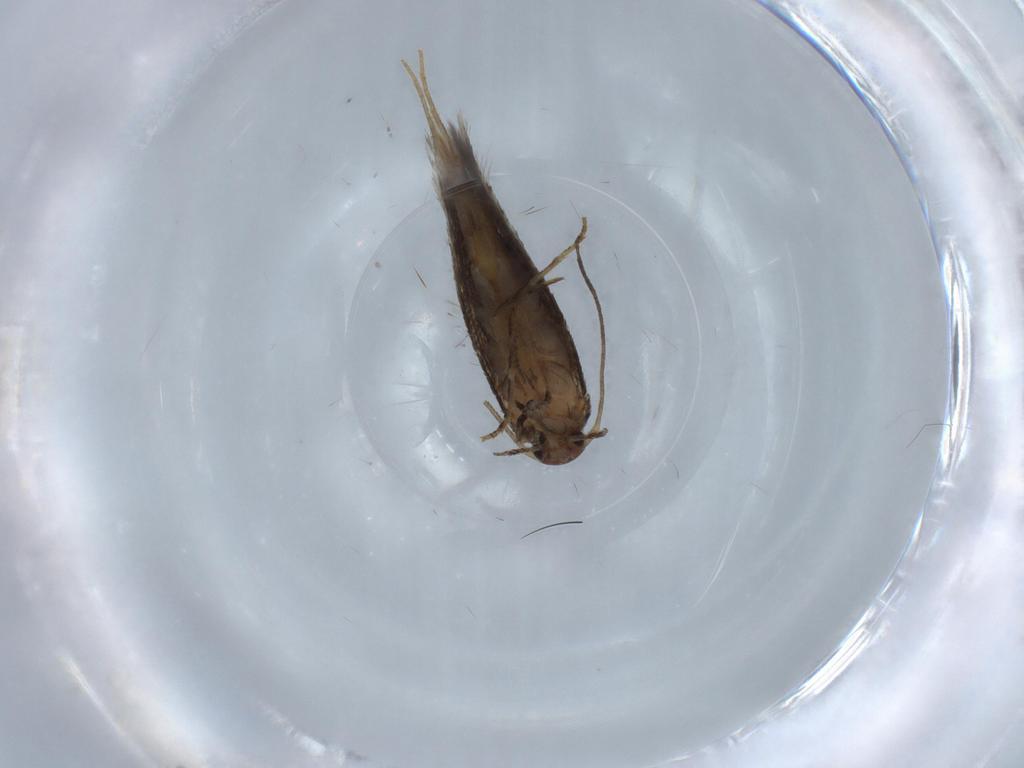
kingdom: Animalia
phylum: Arthropoda
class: Insecta
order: Lepidoptera
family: Elachistidae
